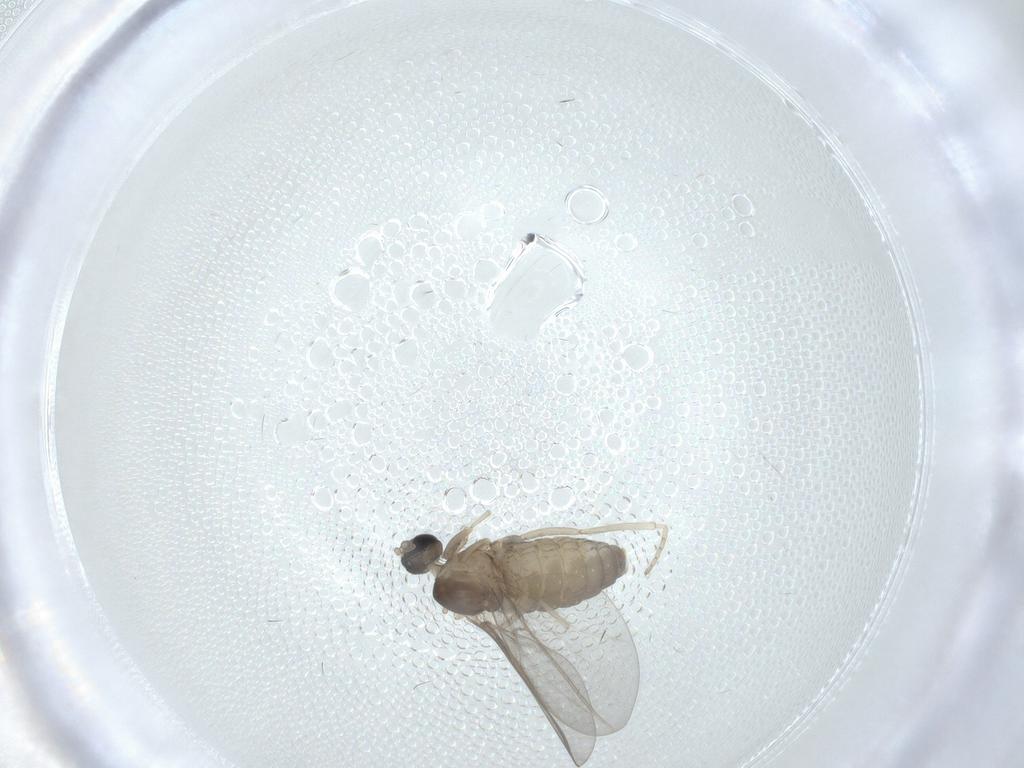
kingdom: Animalia
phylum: Arthropoda
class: Insecta
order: Diptera
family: Cecidomyiidae
